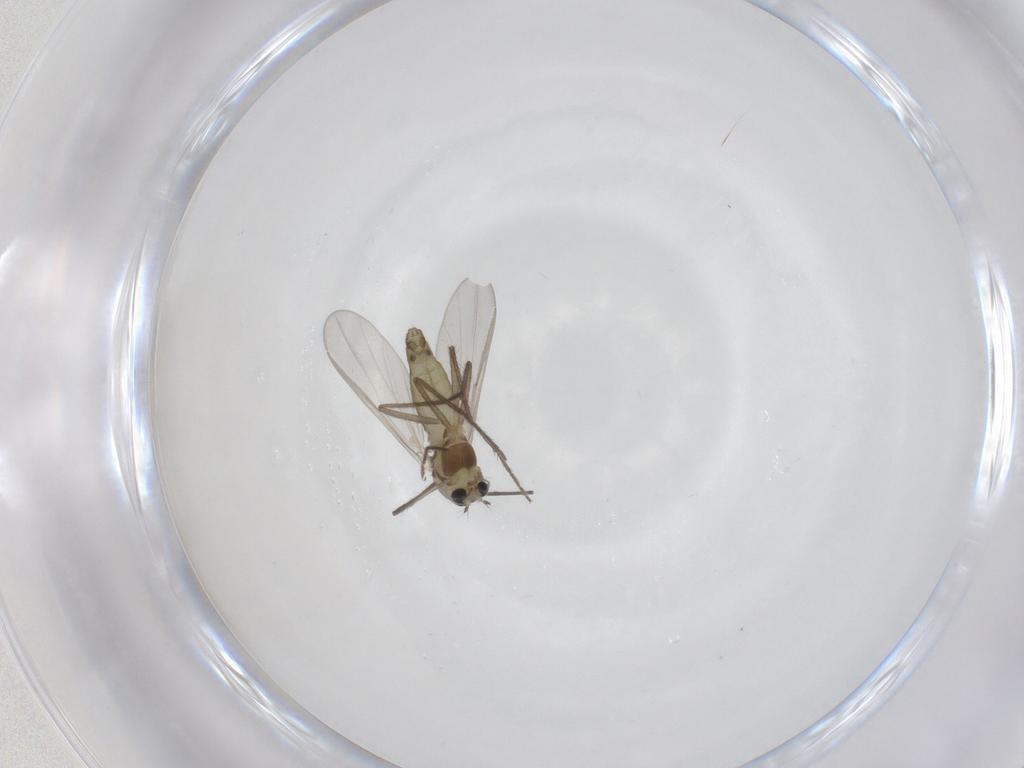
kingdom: Animalia
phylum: Arthropoda
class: Insecta
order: Diptera
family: Chironomidae
